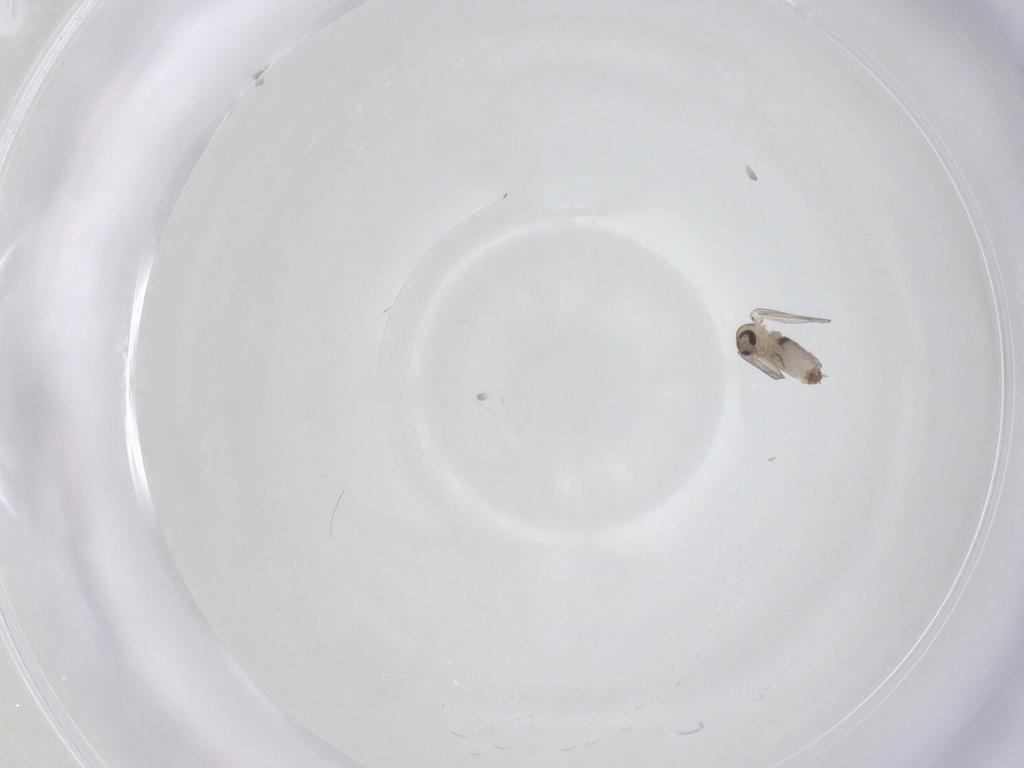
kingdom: Animalia
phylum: Arthropoda
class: Insecta
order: Diptera
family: Psychodidae
